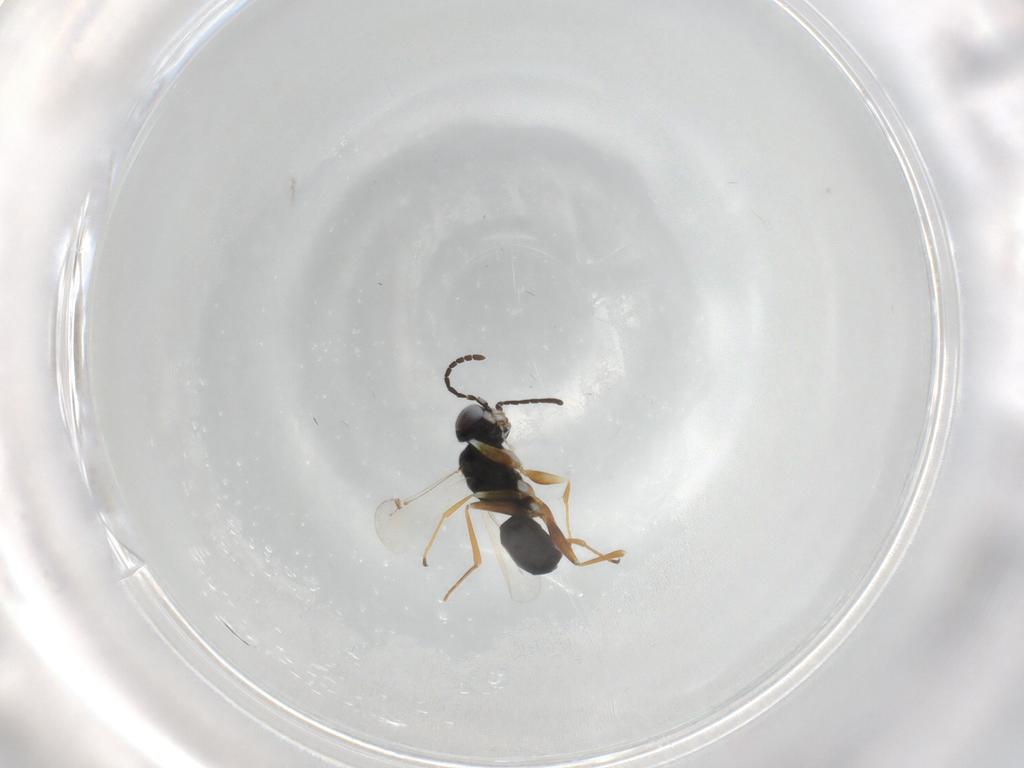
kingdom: Animalia
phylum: Arthropoda
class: Insecta
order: Hymenoptera
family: Dryinidae
